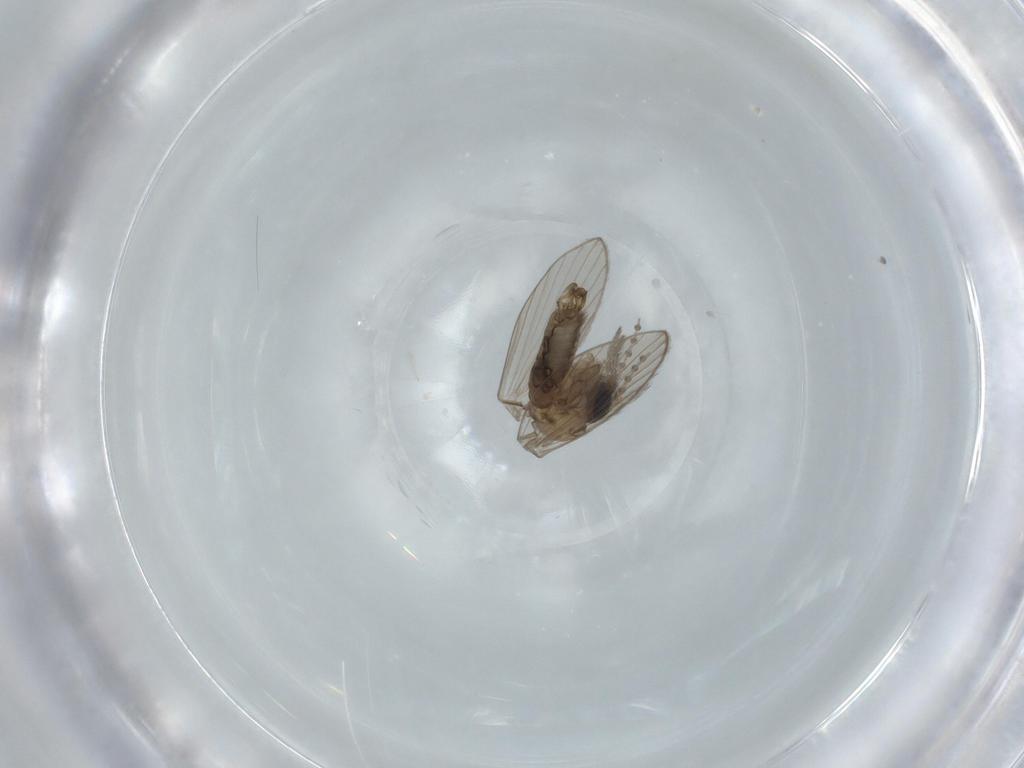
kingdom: Animalia
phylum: Arthropoda
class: Insecta
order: Diptera
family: Psychodidae
